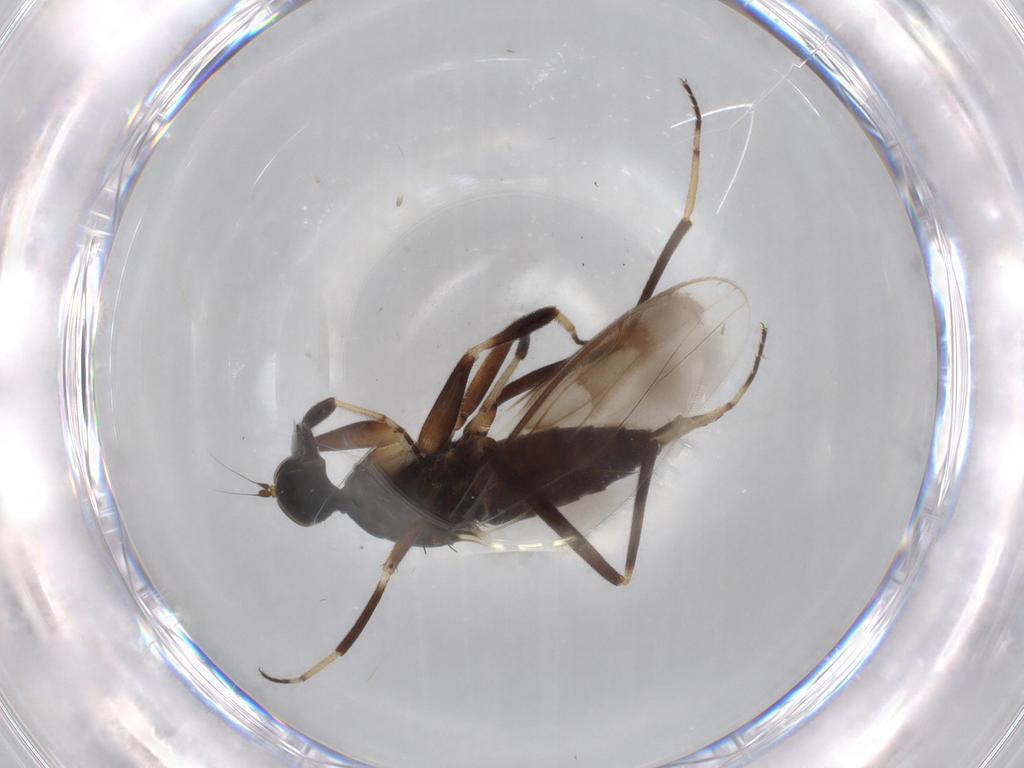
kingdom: Animalia
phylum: Arthropoda
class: Insecta
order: Diptera
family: Hybotidae
